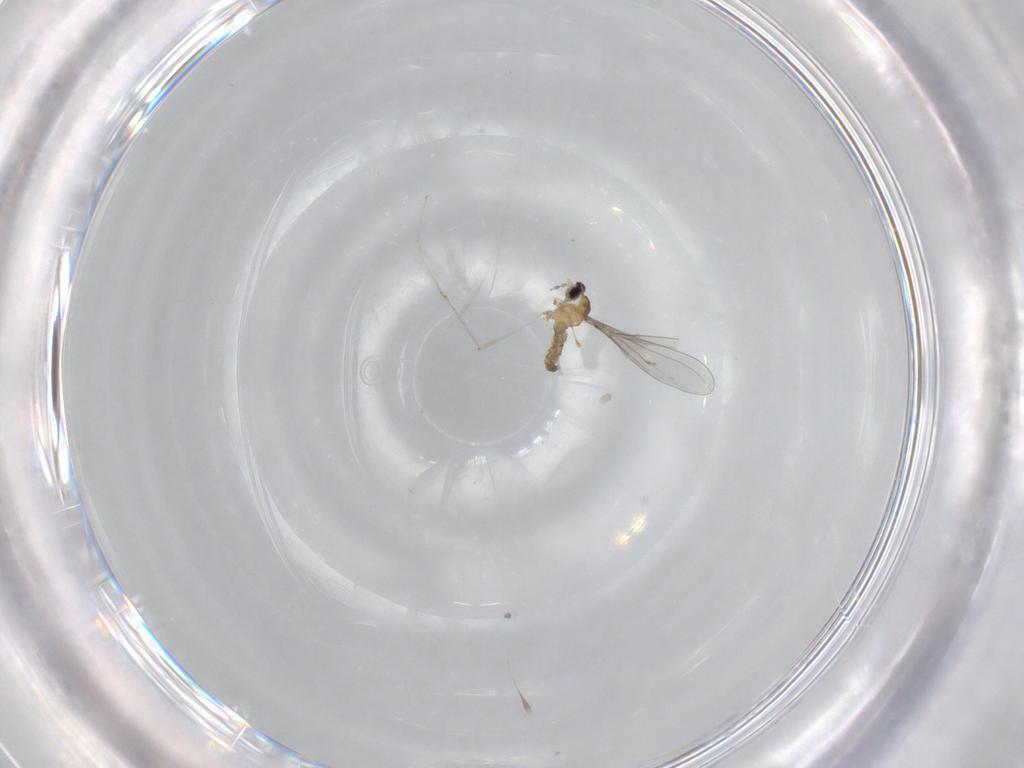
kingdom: Animalia
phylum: Arthropoda
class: Insecta
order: Diptera
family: Cecidomyiidae
